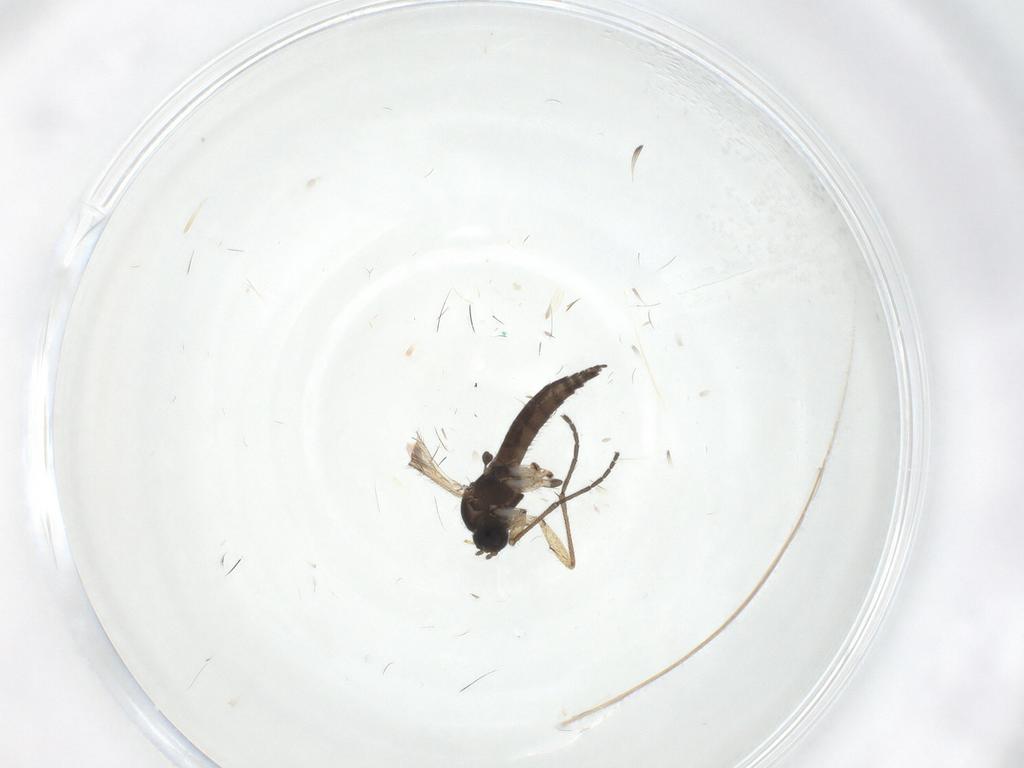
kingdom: Animalia
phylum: Arthropoda
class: Insecta
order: Diptera
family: Sciaridae
